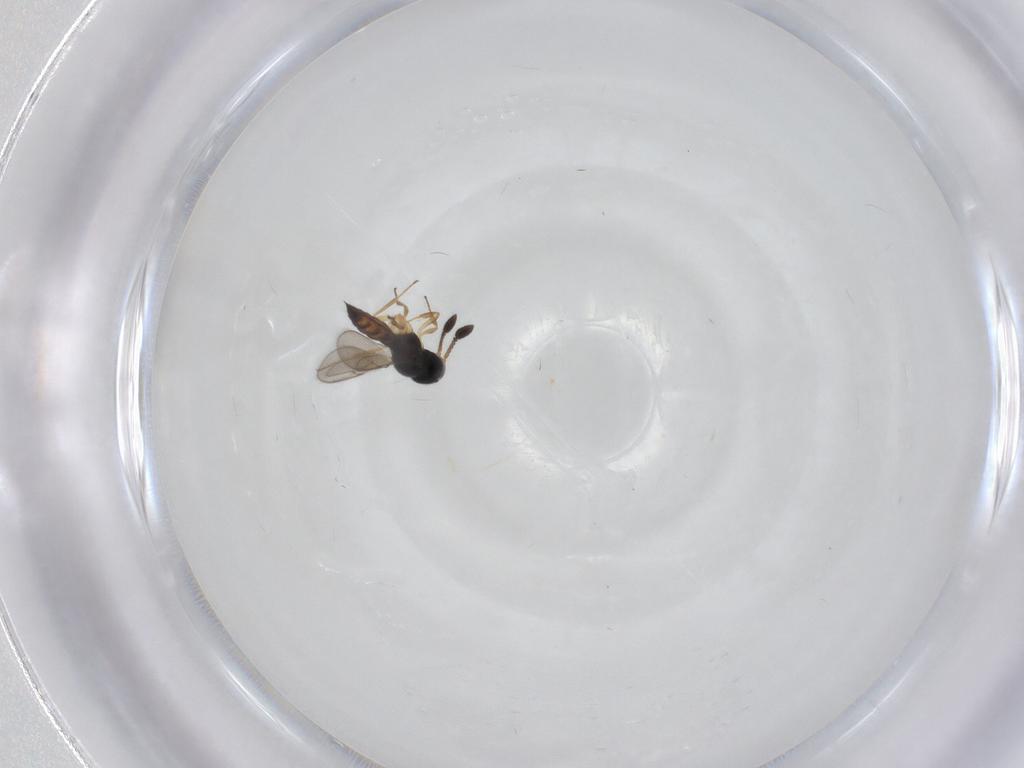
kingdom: Animalia
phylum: Arthropoda
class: Insecta
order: Hymenoptera
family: Scelionidae
